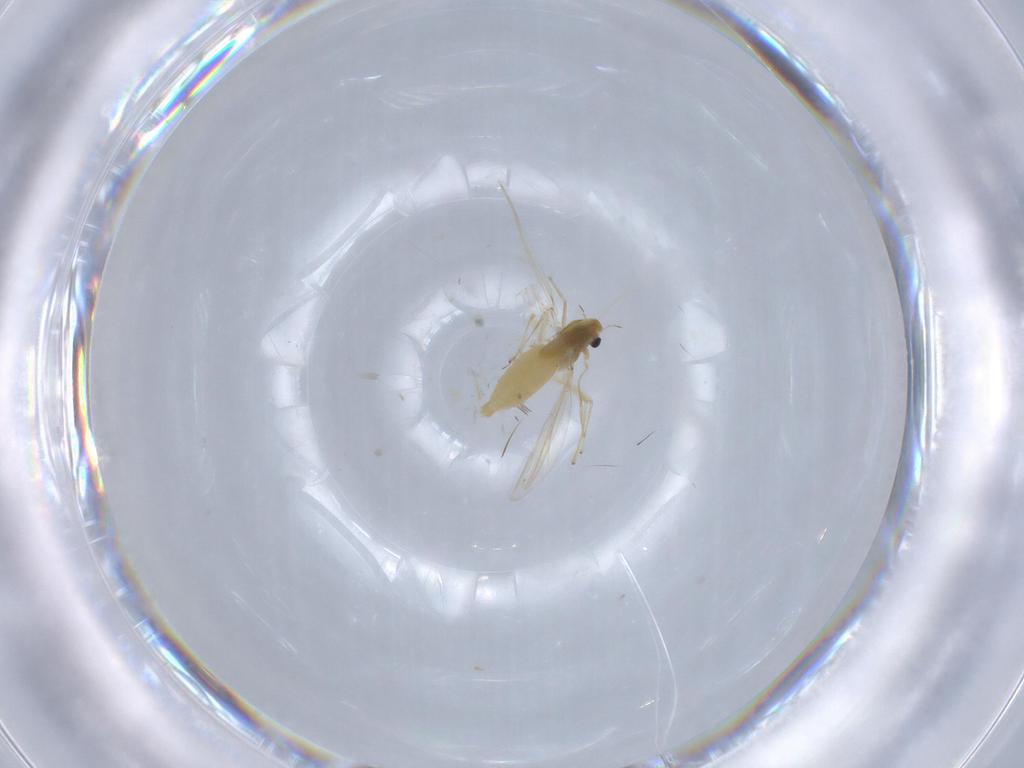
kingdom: Animalia
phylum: Arthropoda
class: Insecta
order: Diptera
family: Chironomidae
